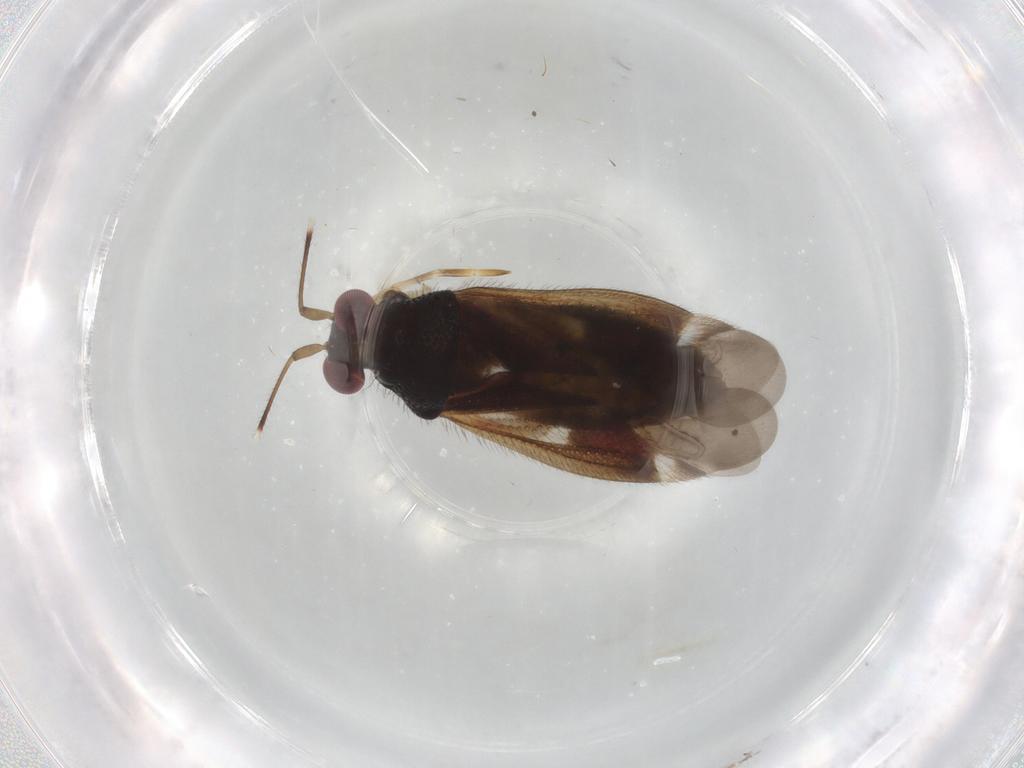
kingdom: Animalia
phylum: Arthropoda
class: Insecta
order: Hemiptera
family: Miridae
